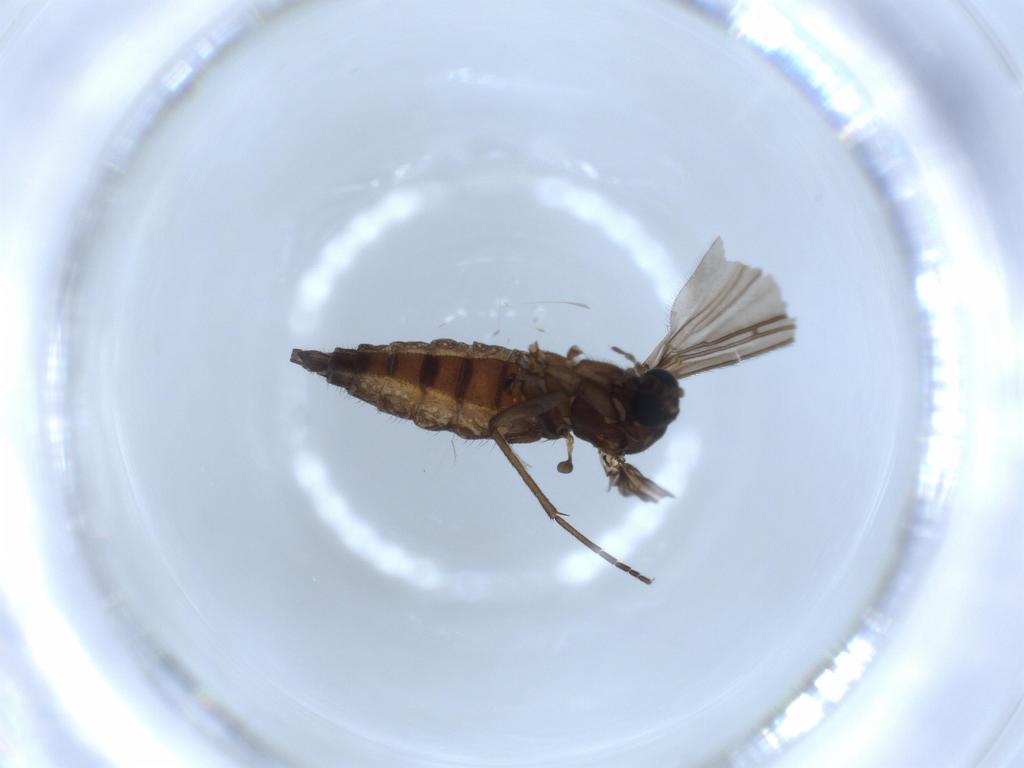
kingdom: Animalia
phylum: Arthropoda
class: Insecta
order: Diptera
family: Sciaridae
